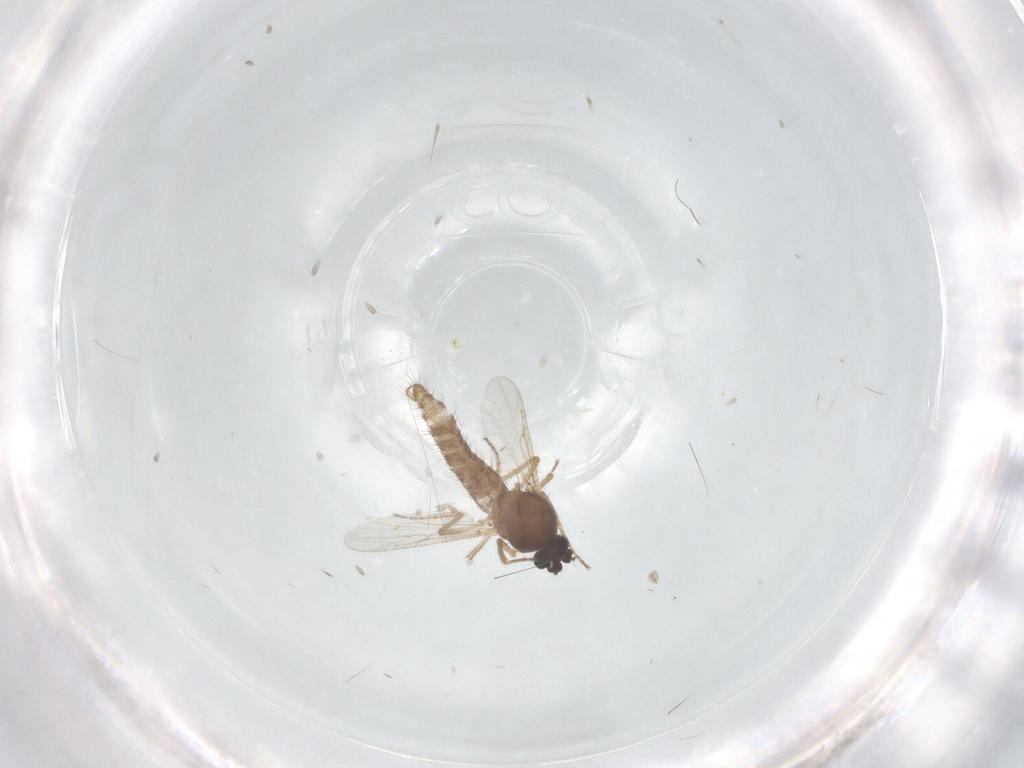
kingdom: Animalia
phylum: Arthropoda
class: Insecta
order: Diptera
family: Ceratopogonidae
